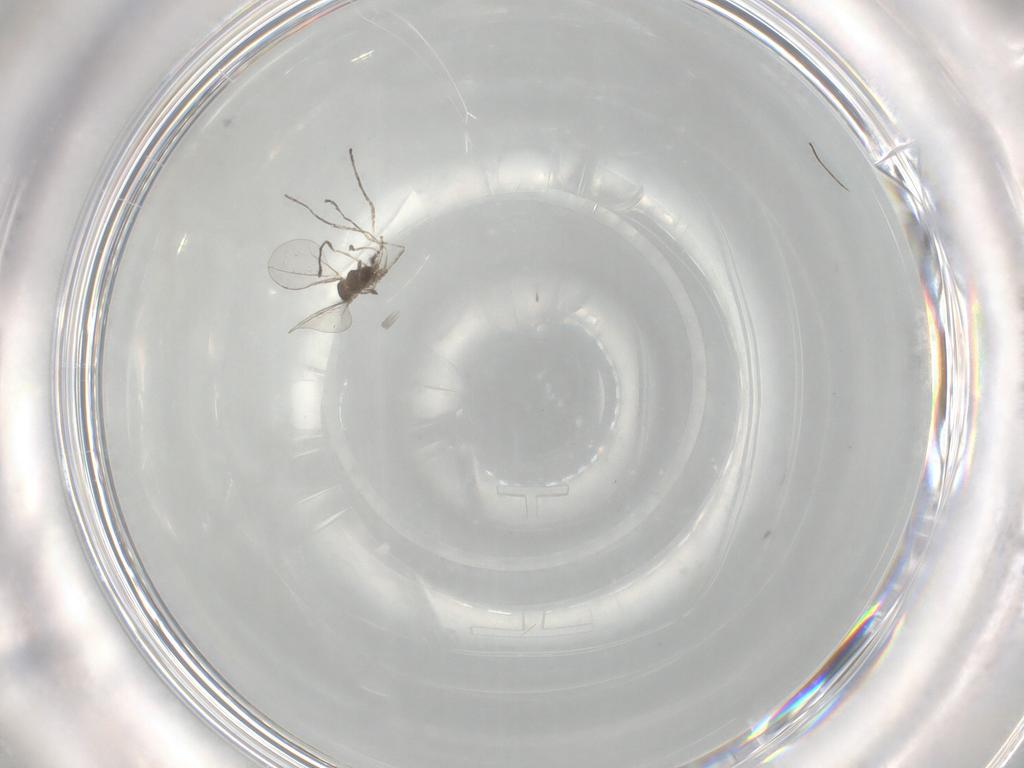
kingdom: Animalia
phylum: Arthropoda
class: Insecta
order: Diptera
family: Cecidomyiidae
